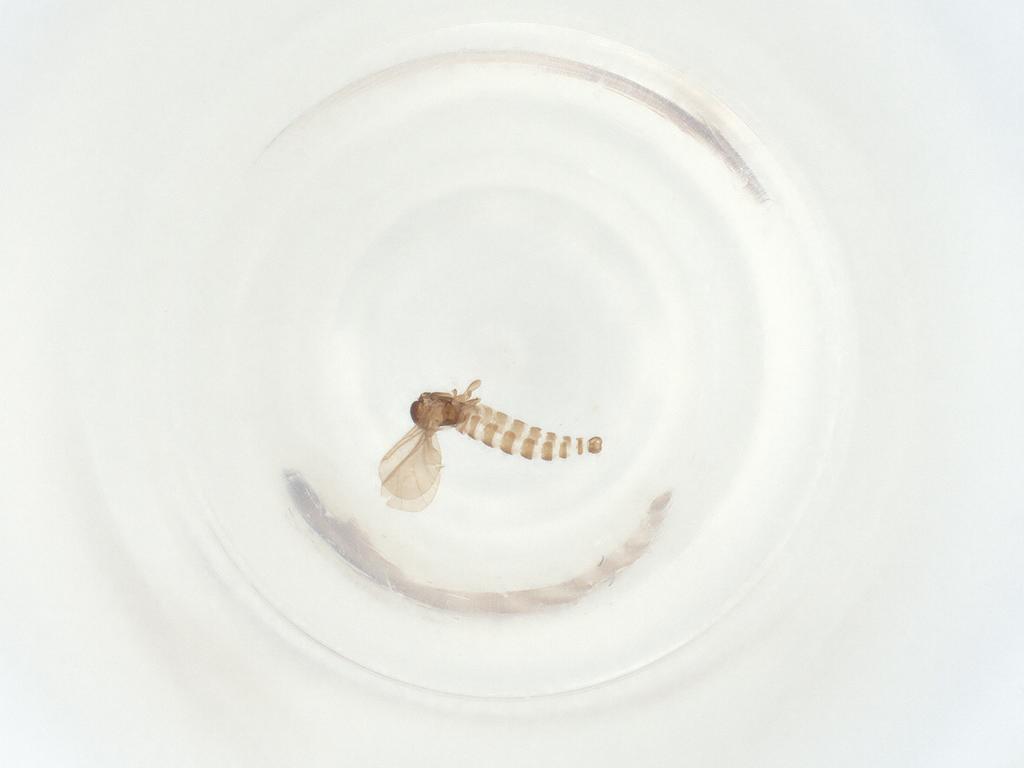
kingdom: Animalia
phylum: Arthropoda
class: Insecta
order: Diptera
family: Sciaridae
